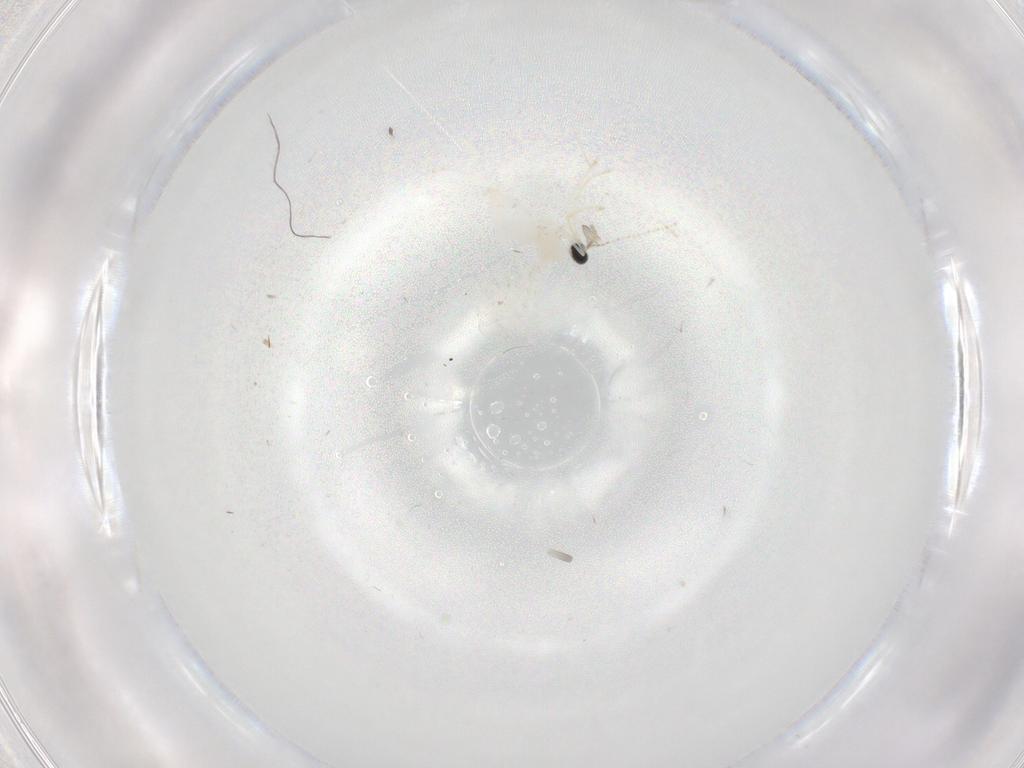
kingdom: Animalia
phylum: Arthropoda
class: Insecta
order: Diptera
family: Cecidomyiidae
